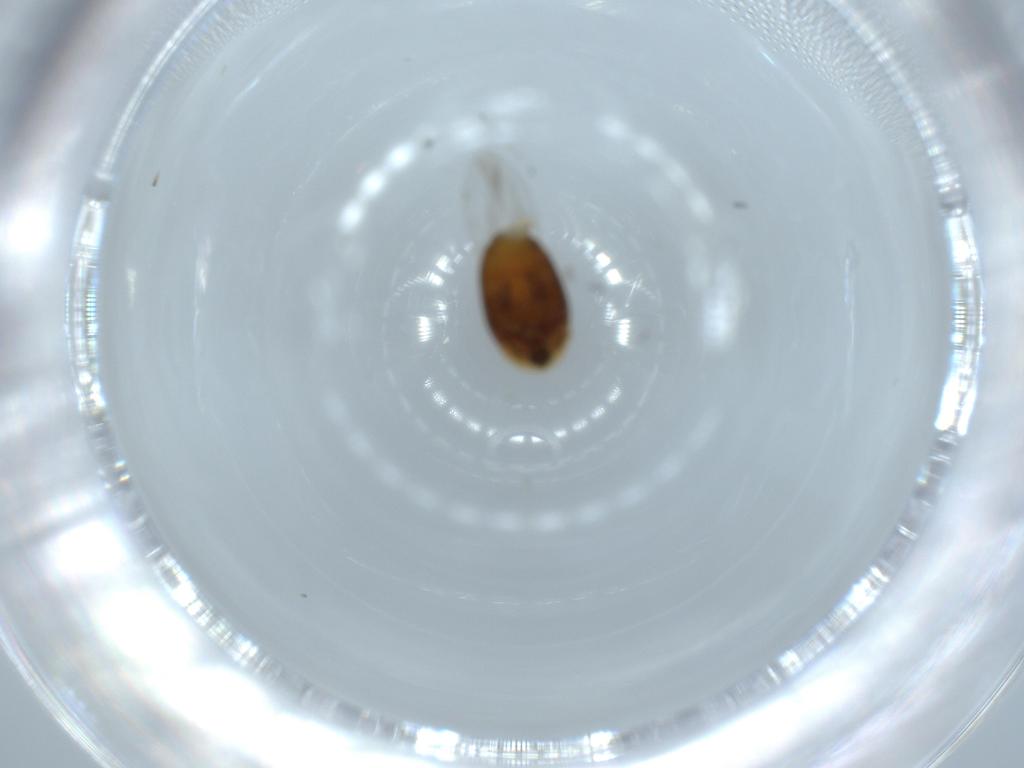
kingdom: Animalia
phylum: Arthropoda
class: Insecta
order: Coleoptera
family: Corylophidae
